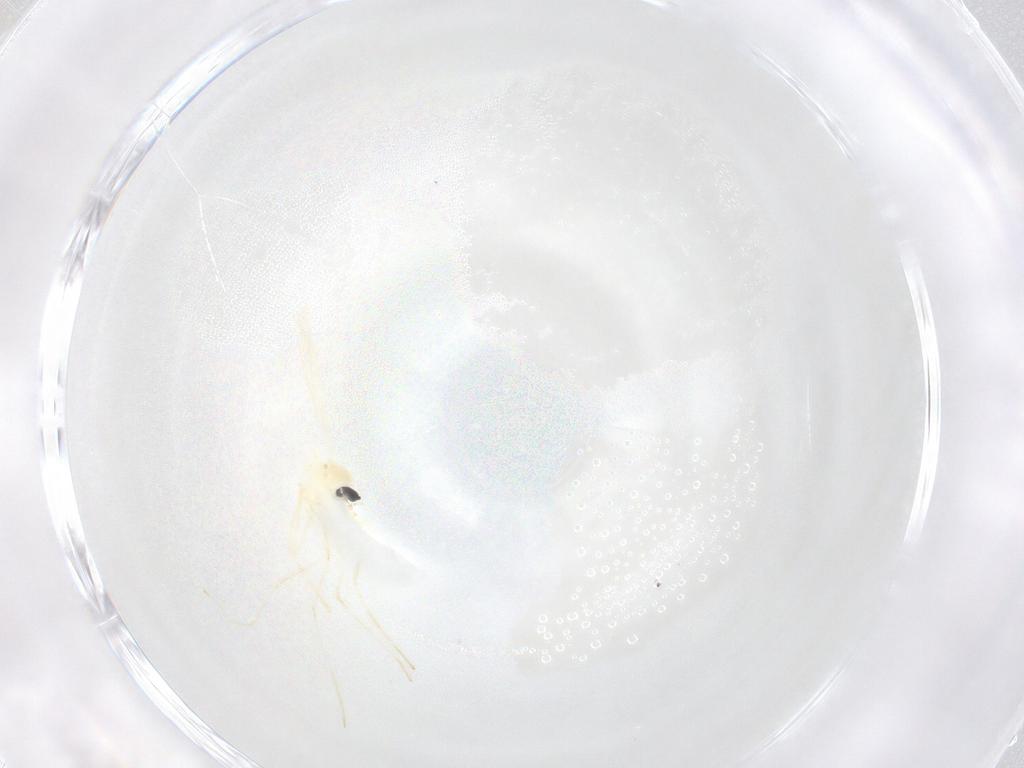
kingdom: Animalia
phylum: Arthropoda
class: Insecta
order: Diptera
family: Cecidomyiidae
